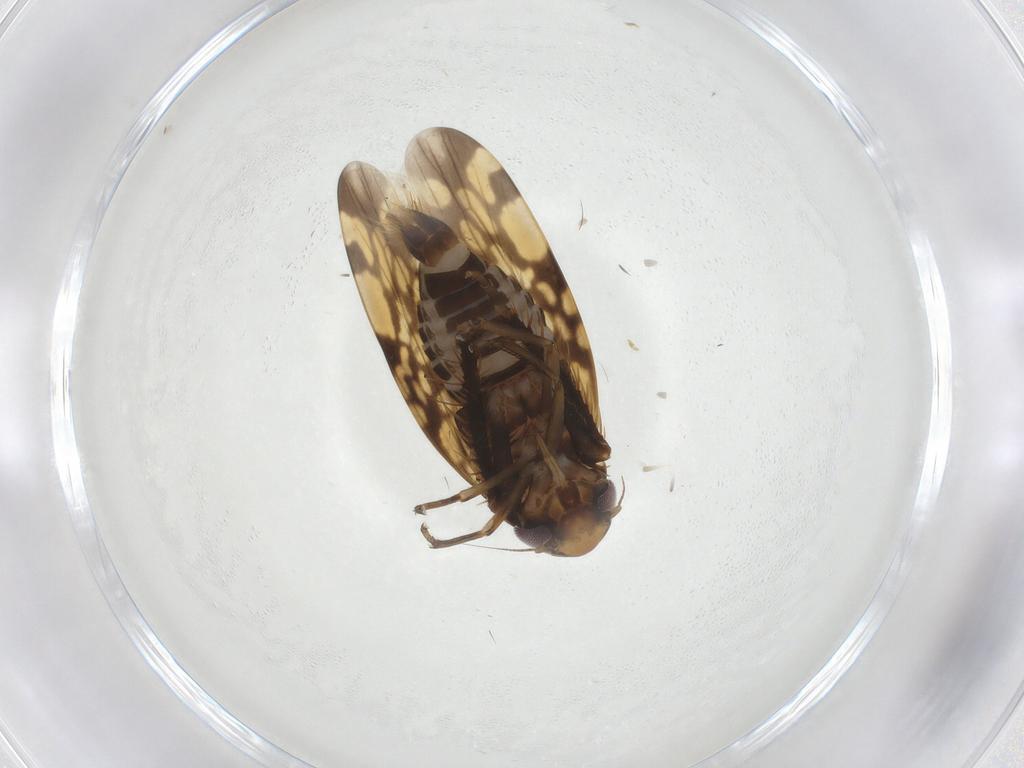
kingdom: Animalia
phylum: Arthropoda
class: Insecta
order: Hemiptera
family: Cicadellidae
